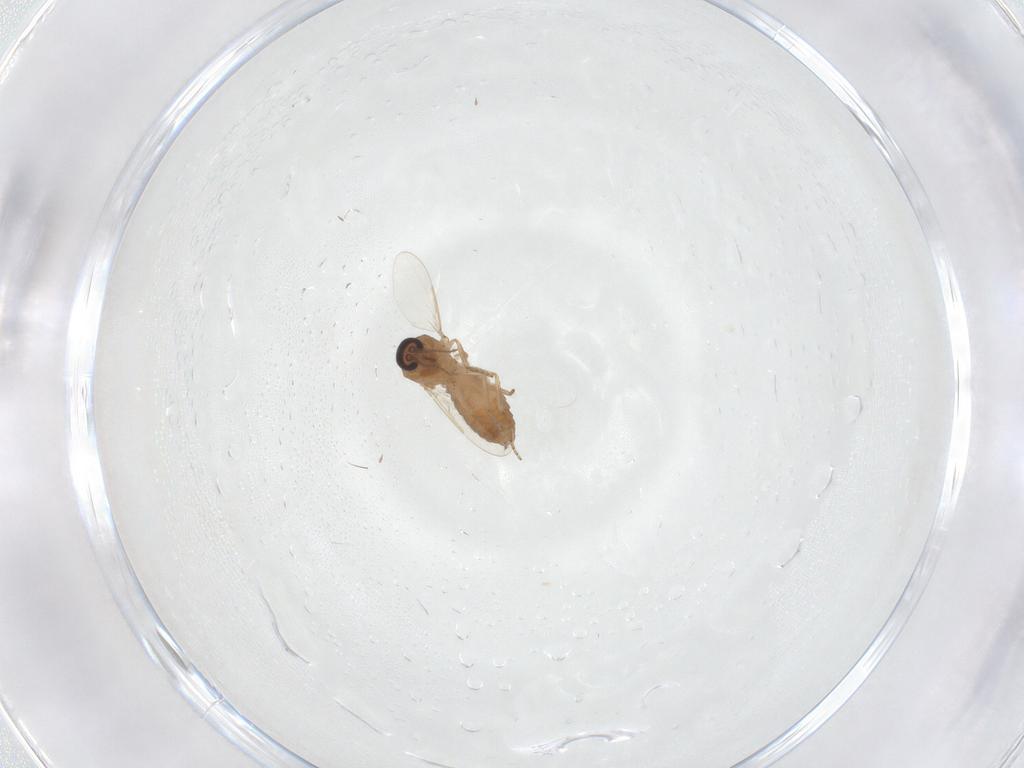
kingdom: Animalia
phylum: Arthropoda
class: Insecta
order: Diptera
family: Ceratopogonidae
